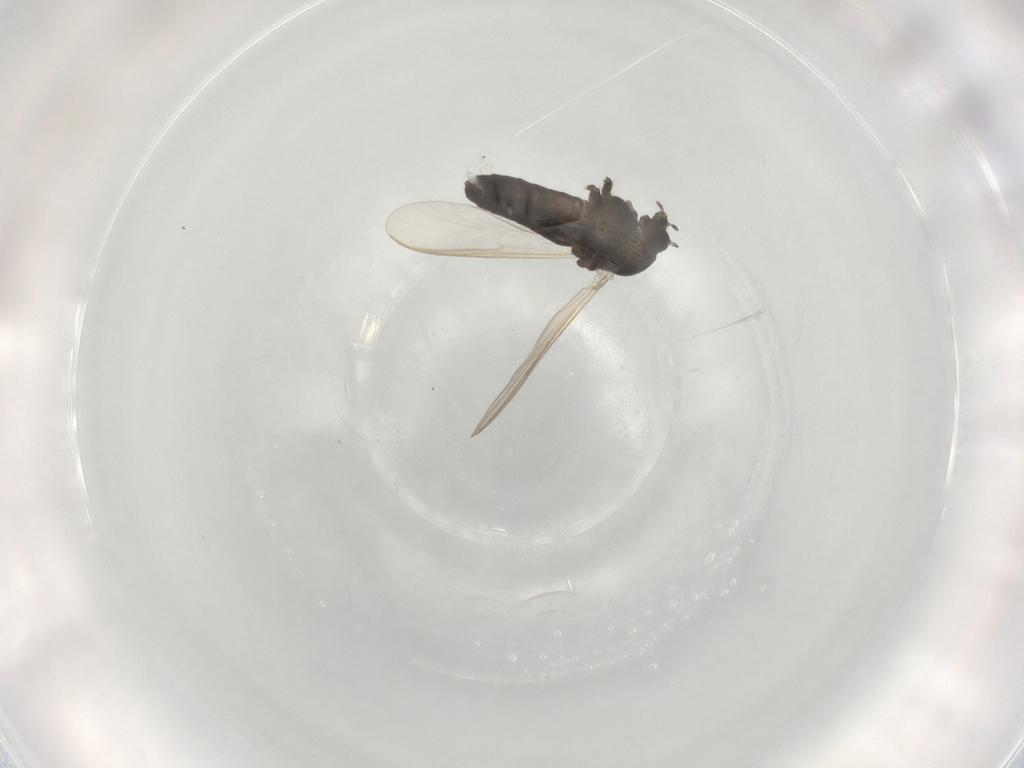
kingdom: Animalia
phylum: Arthropoda
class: Insecta
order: Diptera
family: Chironomidae
